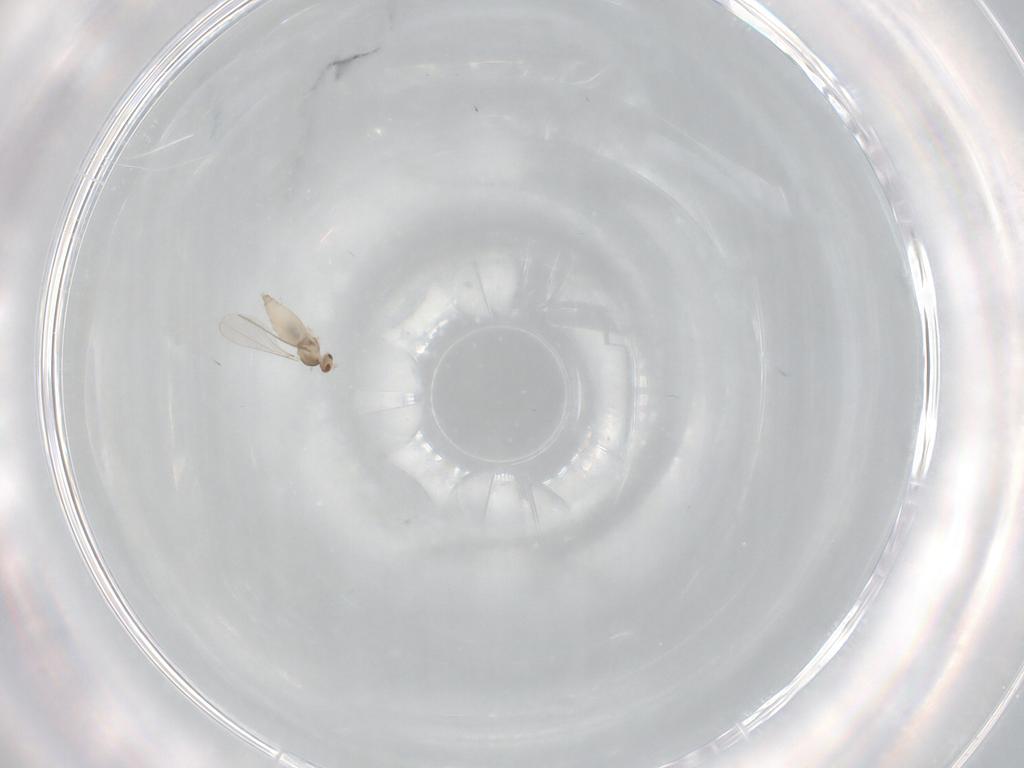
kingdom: Animalia
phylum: Arthropoda
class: Insecta
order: Diptera
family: Cecidomyiidae
